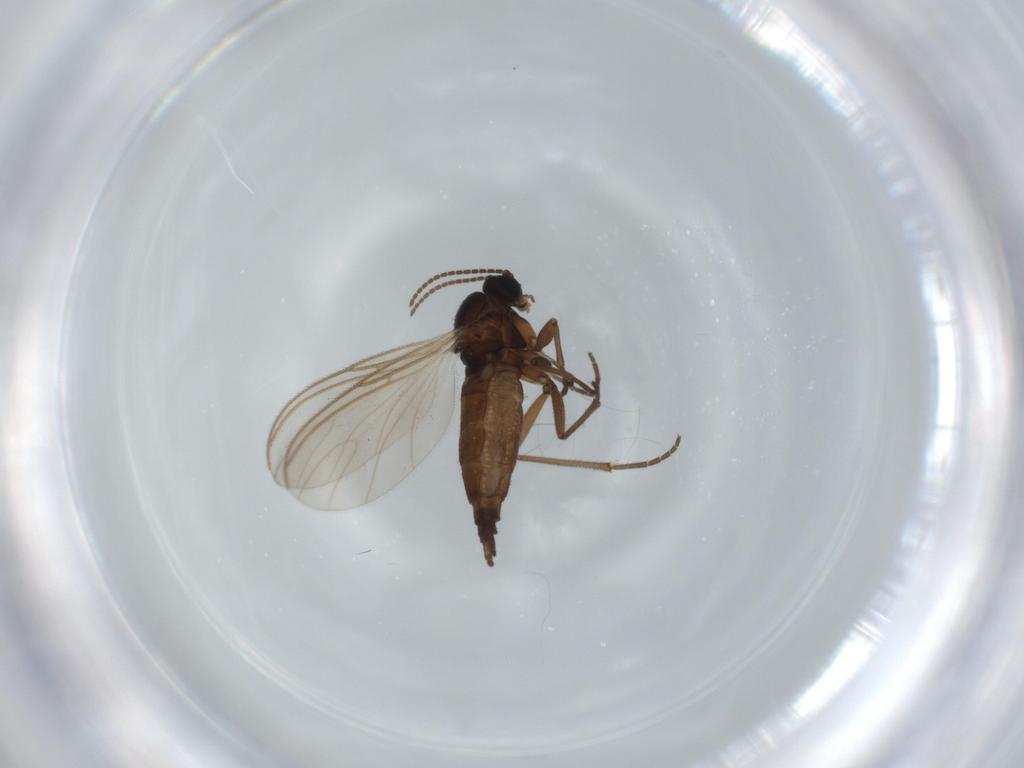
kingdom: Animalia
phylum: Arthropoda
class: Insecta
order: Diptera
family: Sciaridae
